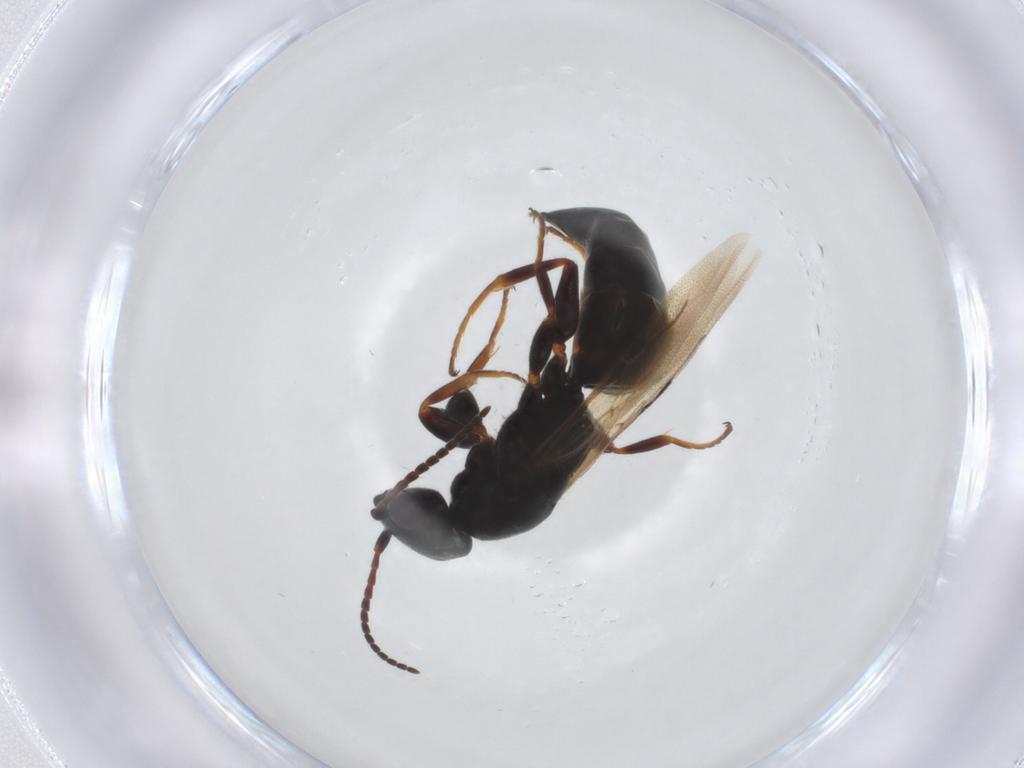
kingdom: Animalia
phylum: Arthropoda
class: Insecta
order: Hymenoptera
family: Bethylidae
